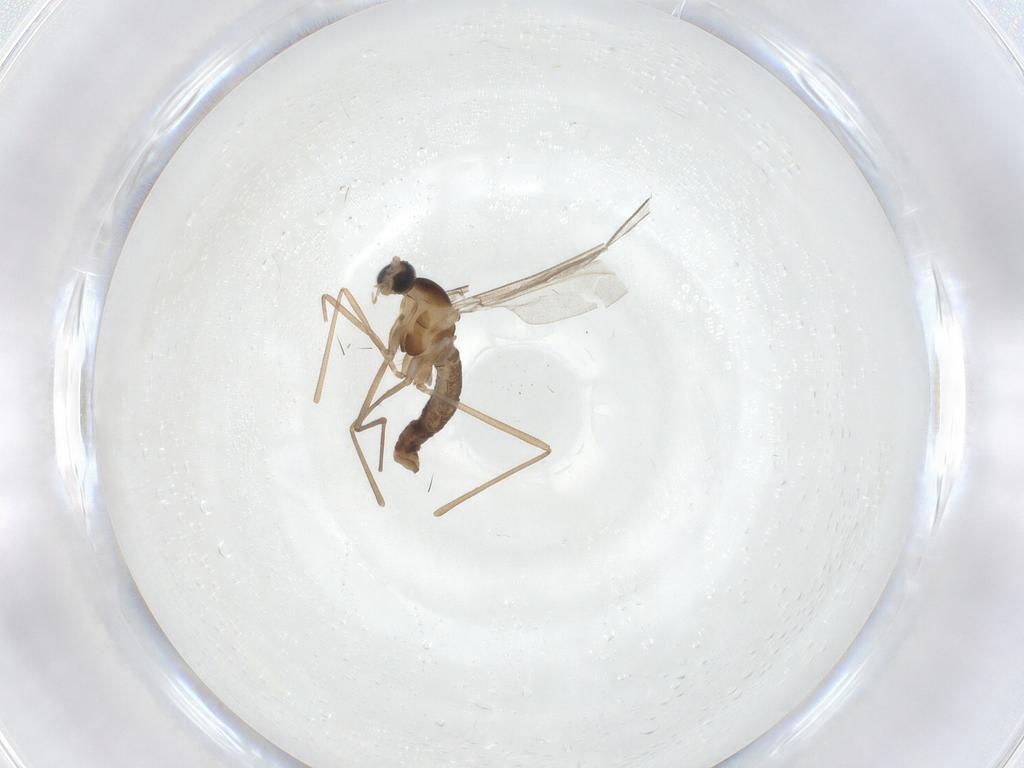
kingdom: Animalia
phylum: Arthropoda
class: Insecta
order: Diptera
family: Cecidomyiidae
